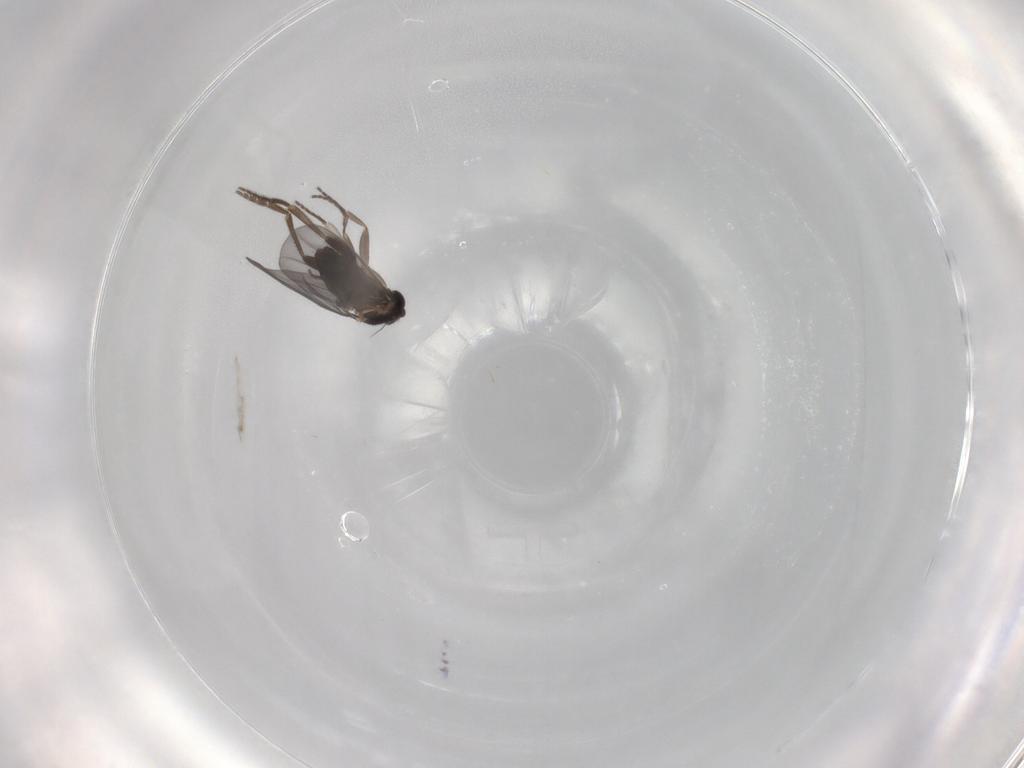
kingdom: Animalia
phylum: Arthropoda
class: Insecta
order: Diptera
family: Phoridae
